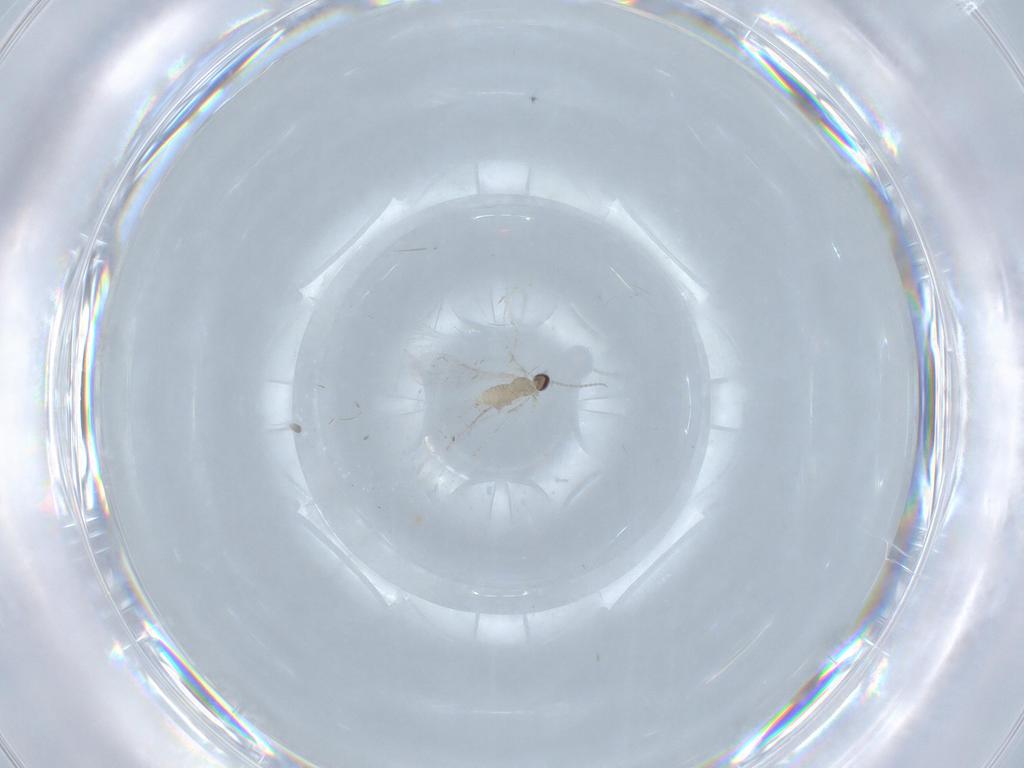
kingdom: Animalia
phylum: Arthropoda
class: Insecta
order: Diptera
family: Cecidomyiidae
